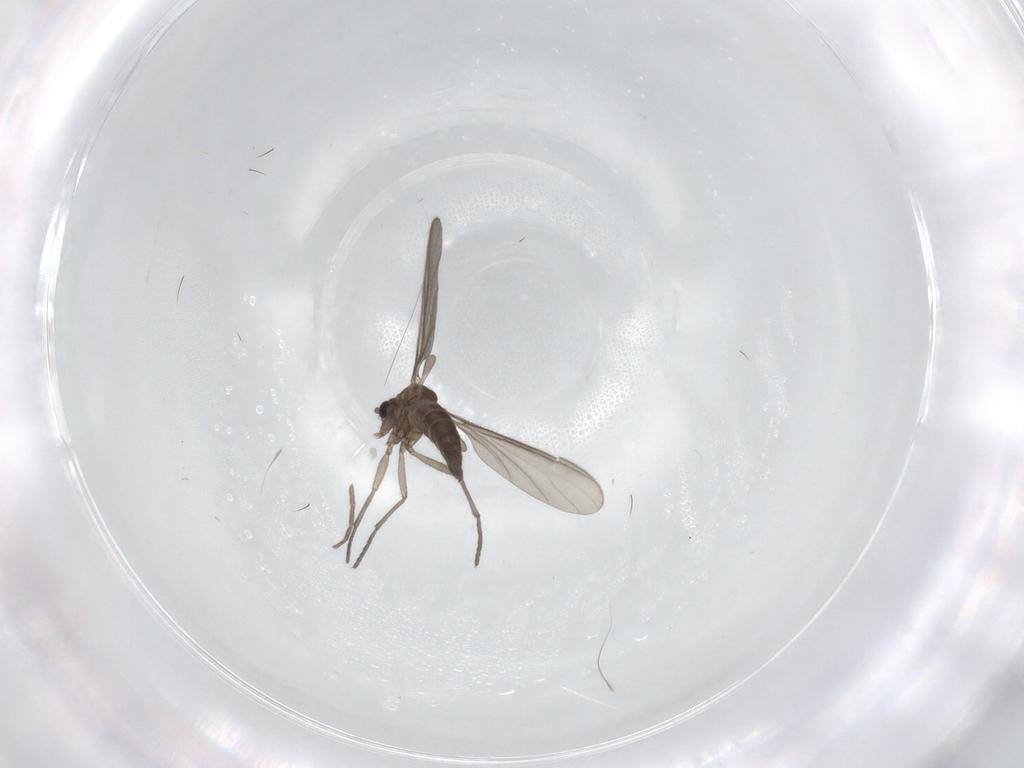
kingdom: Animalia
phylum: Arthropoda
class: Insecta
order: Diptera
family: Sciaridae
